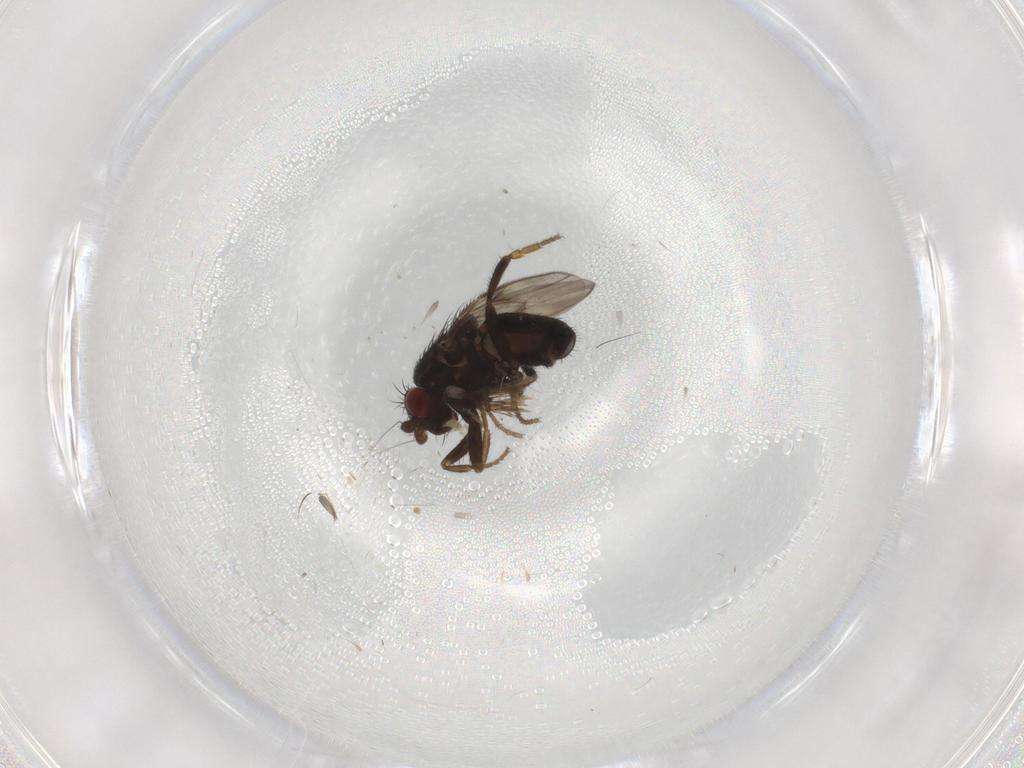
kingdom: Animalia
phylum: Arthropoda
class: Insecta
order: Diptera
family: Sphaeroceridae
